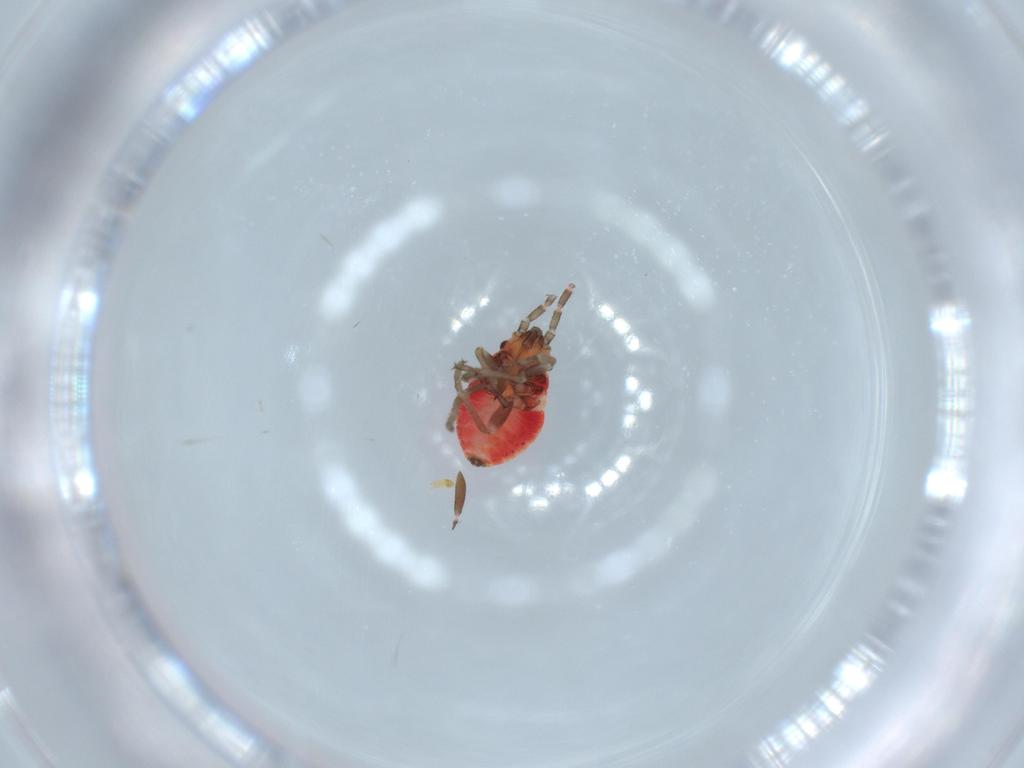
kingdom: Animalia
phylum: Arthropoda
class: Insecta
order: Hemiptera
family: Lygaeidae
